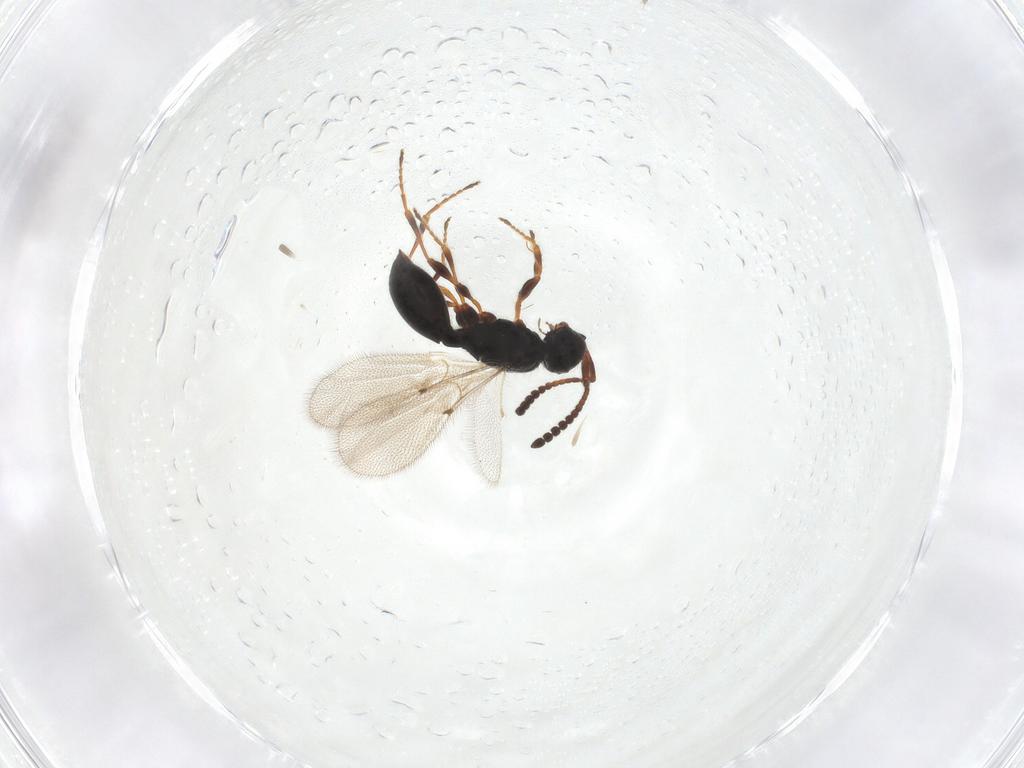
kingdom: Animalia
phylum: Arthropoda
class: Insecta
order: Hymenoptera
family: Diapriidae
